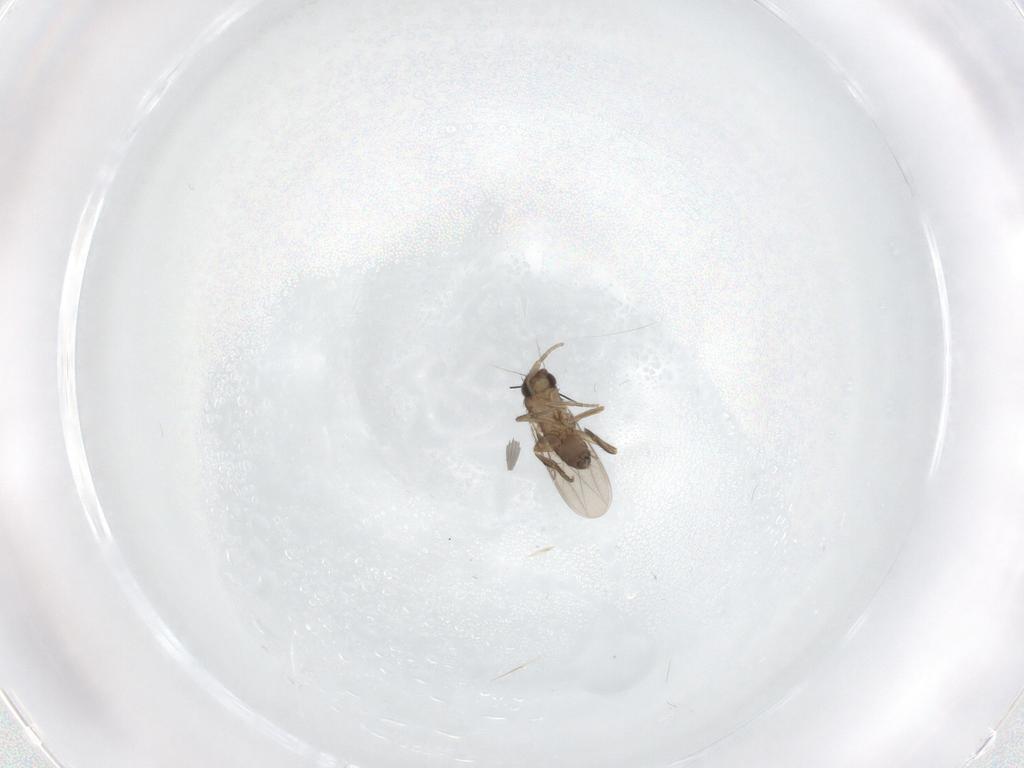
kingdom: Animalia
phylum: Arthropoda
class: Insecta
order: Diptera
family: Phoridae
